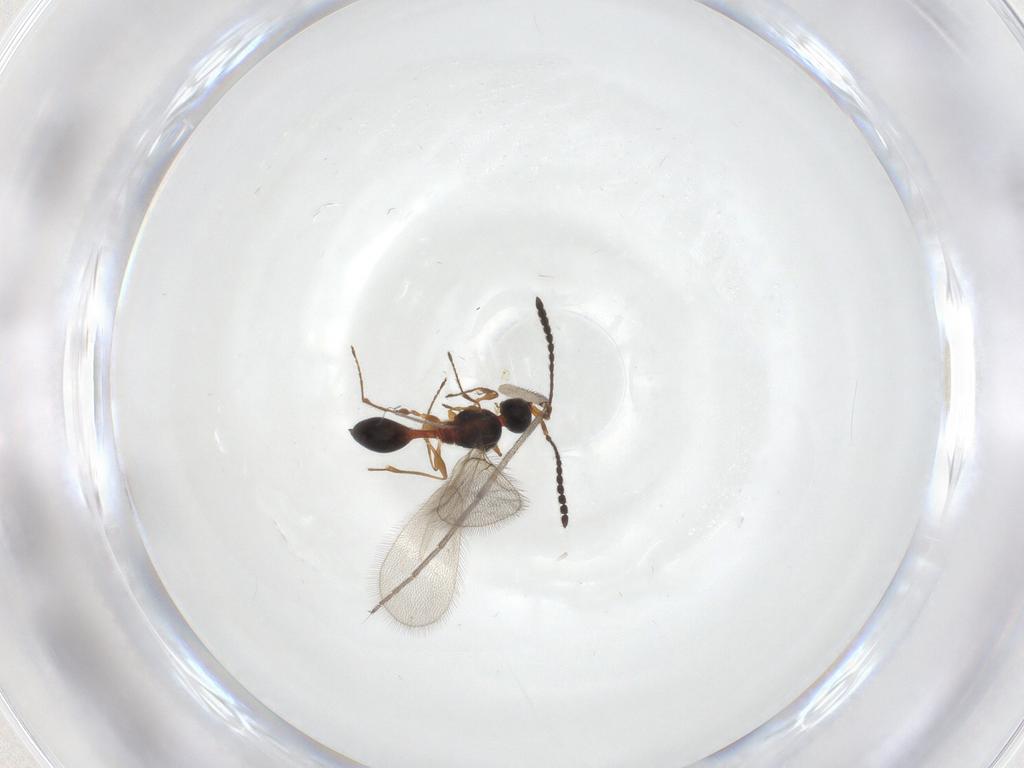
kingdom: Animalia
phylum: Arthropoda
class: Insecta
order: Hymenoptera
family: Diapriidae
